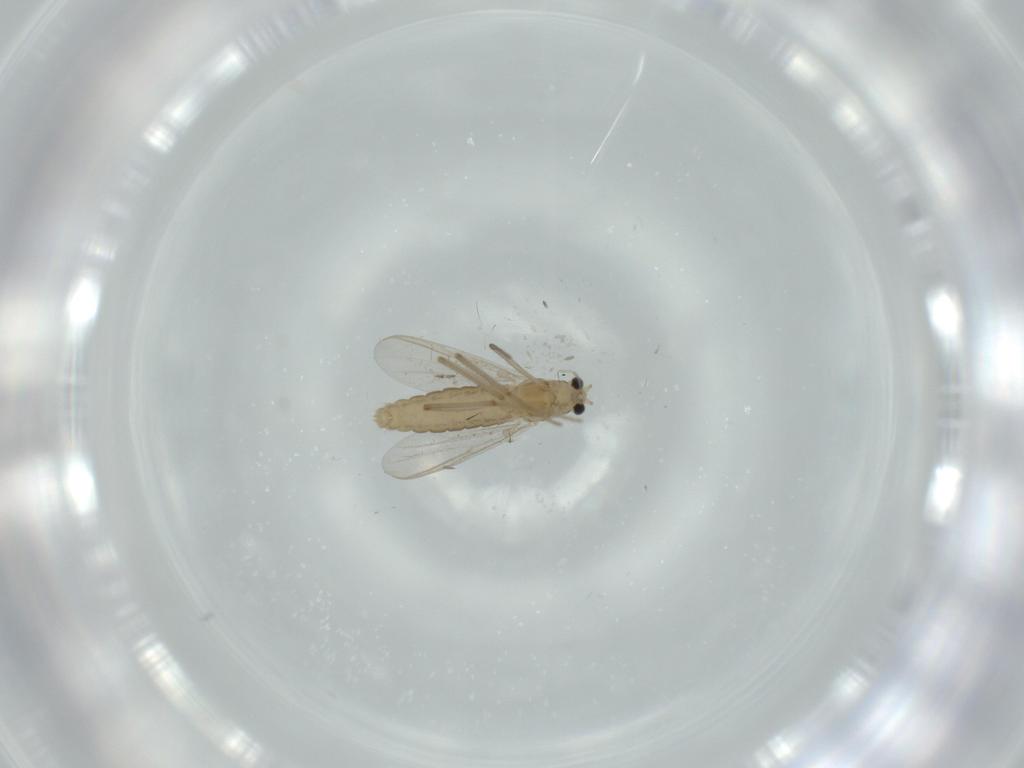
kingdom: Animalia
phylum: Arthropoda
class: Insecta
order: Diptera
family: Chironomidae
